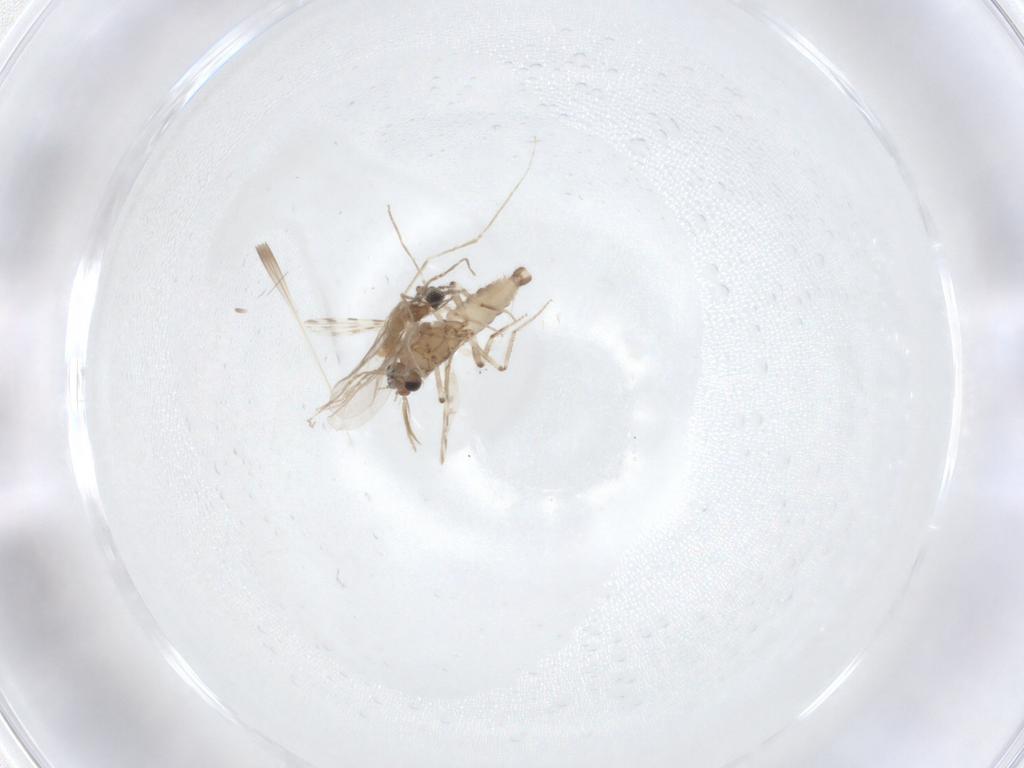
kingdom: Animalia
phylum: Arthropoda
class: Insecta
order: Diptera
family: Cecidomyiidae
